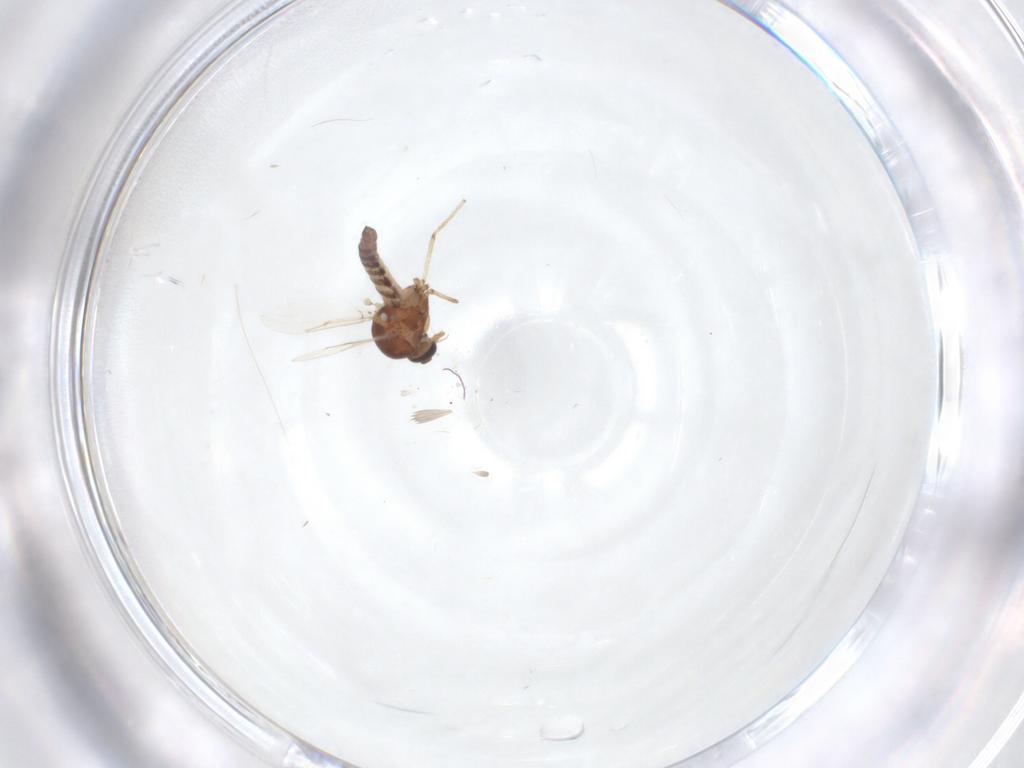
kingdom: Animalia
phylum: Arthropoda
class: Insecta
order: Diptera
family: Ceratopogonidae
